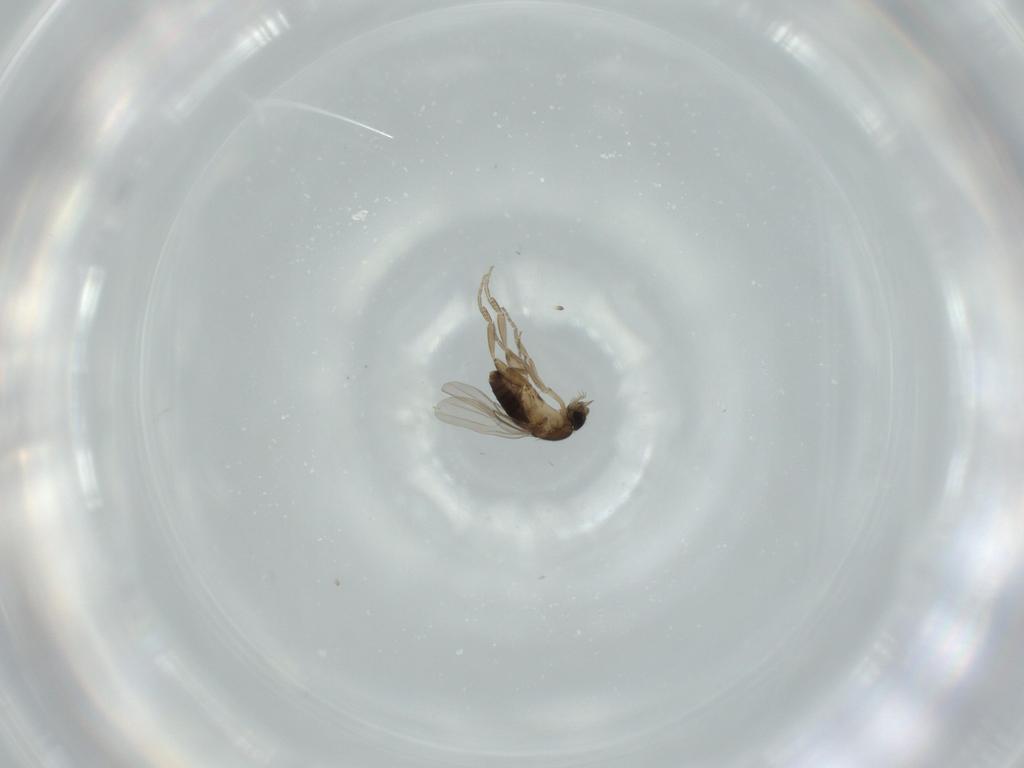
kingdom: Animalia
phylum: Arthropoda
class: Insecta
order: Diptera
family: Phoridae
